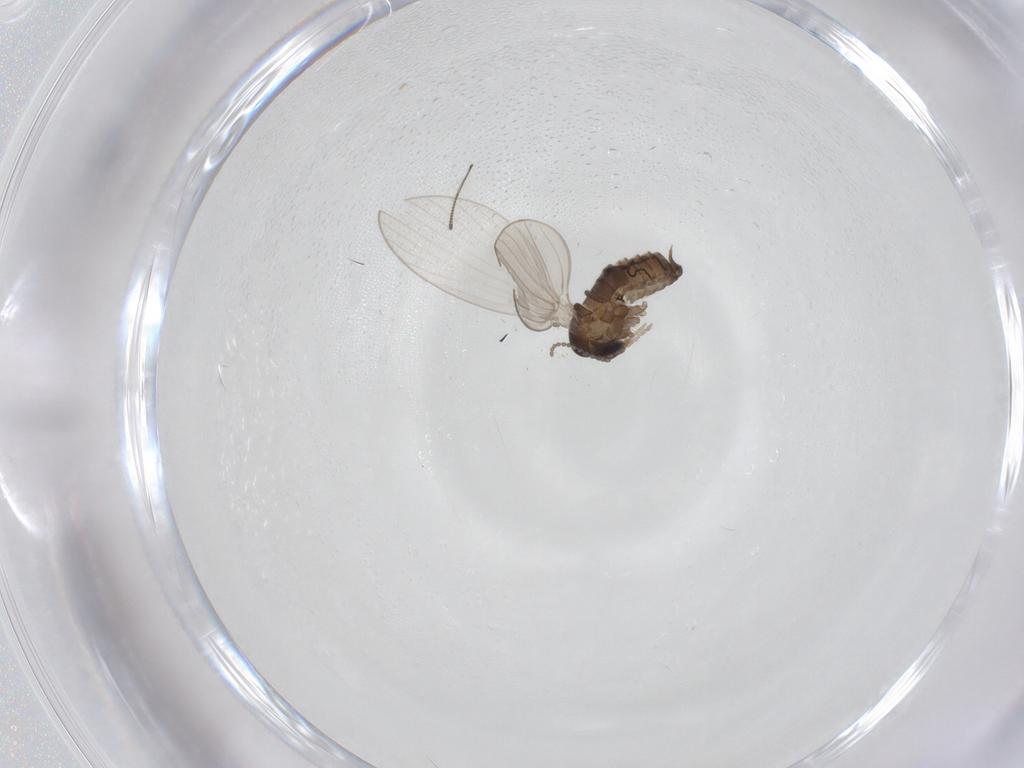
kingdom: Animalia
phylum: Arthropoda
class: Insecta
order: Diptera
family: Chironomidae
